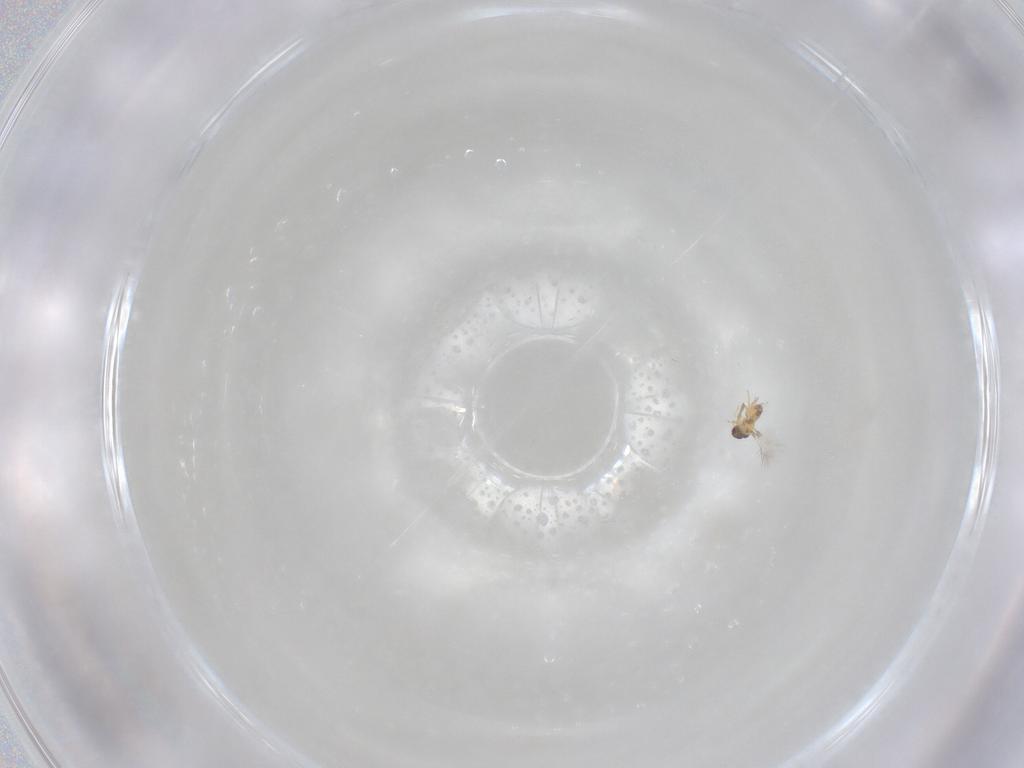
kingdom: Animalia
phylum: Arthropoda
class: Insecta
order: Hymenoptera
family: Mymaridae
